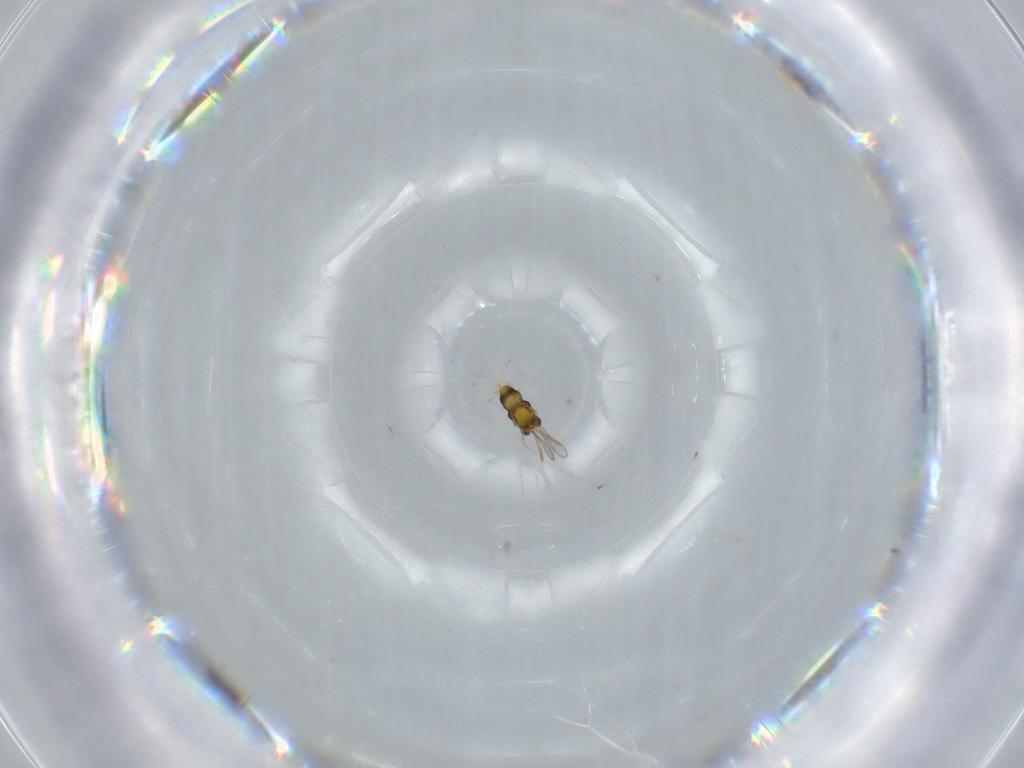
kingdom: Animalia
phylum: Arthropoda
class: Insecta
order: Hymenoptera
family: Aphelinidae
